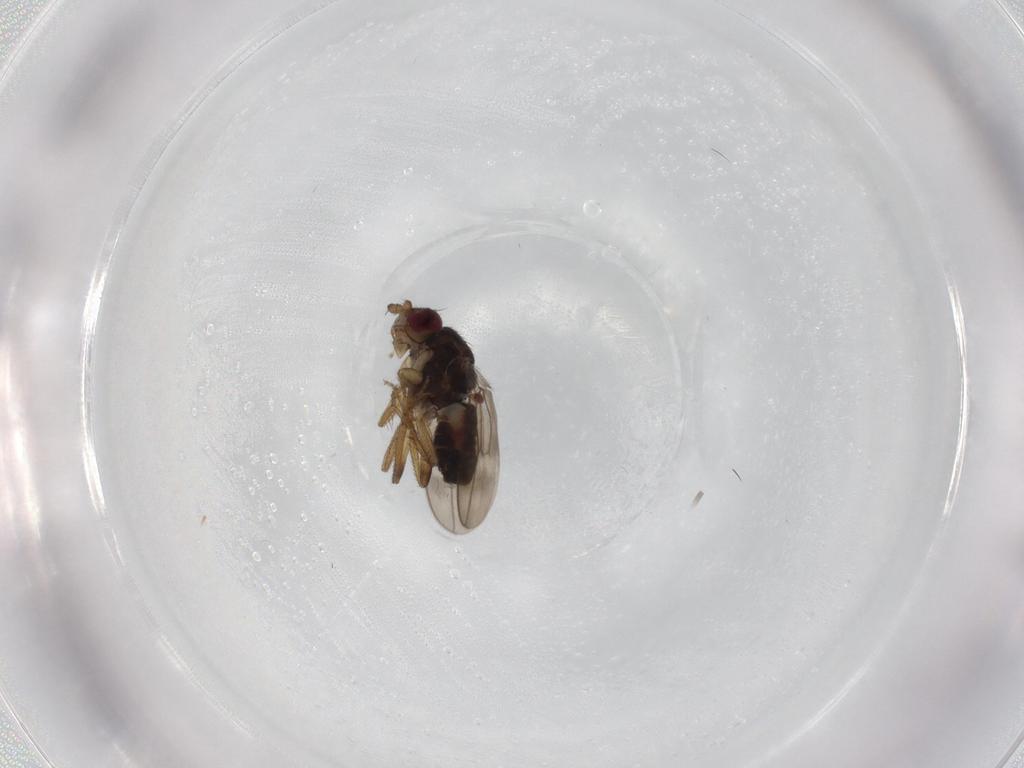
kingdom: Animalia
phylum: Arthropoda
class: Insecta
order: Diptera
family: Sphaeroceridae
